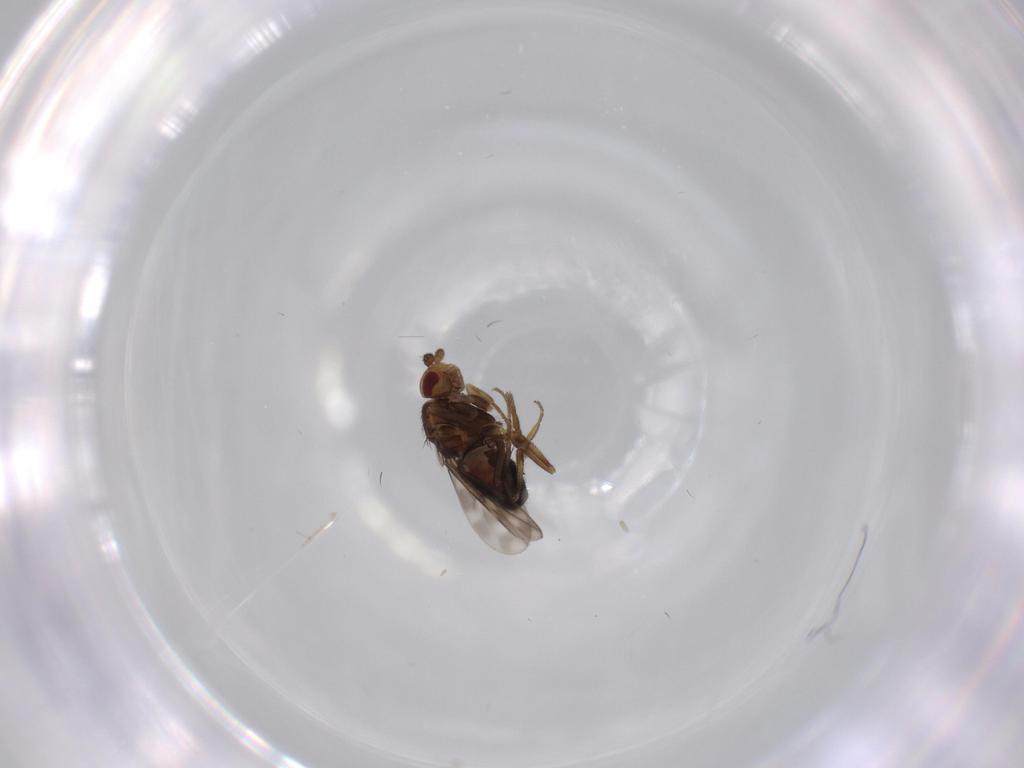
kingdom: Animalia
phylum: Arthropoda
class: Insecta
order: Diptera
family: Sphaeroceridae
